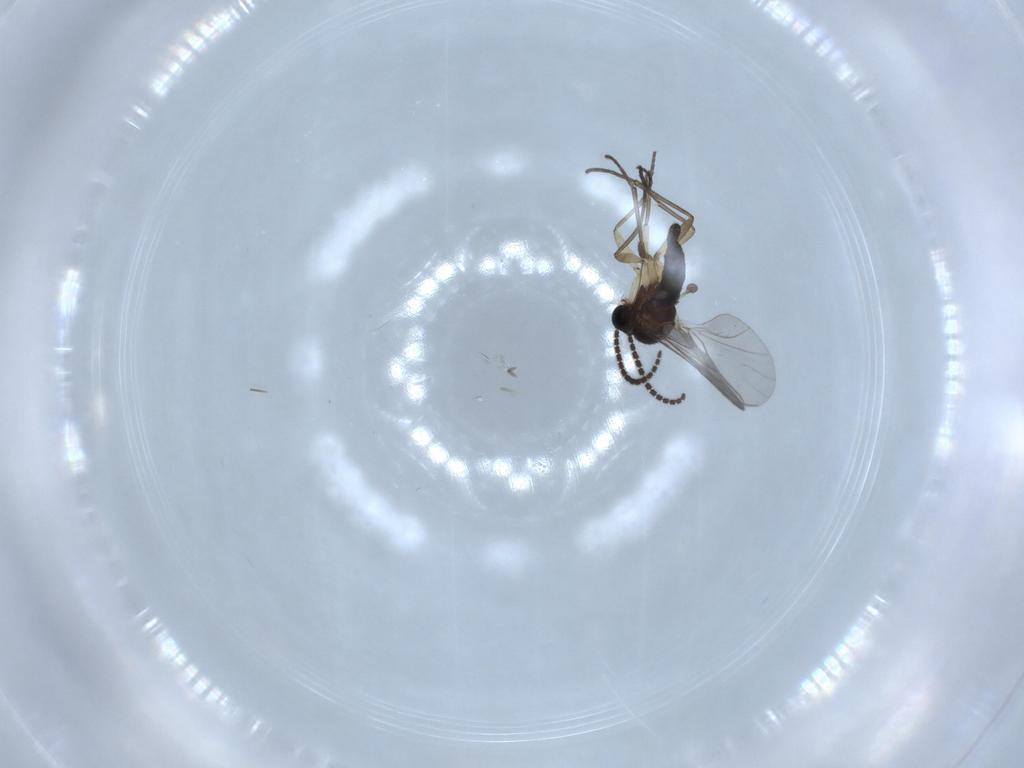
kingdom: Animalia
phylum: Arthropoda
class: Insecta
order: Diptera
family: Sciaridae
